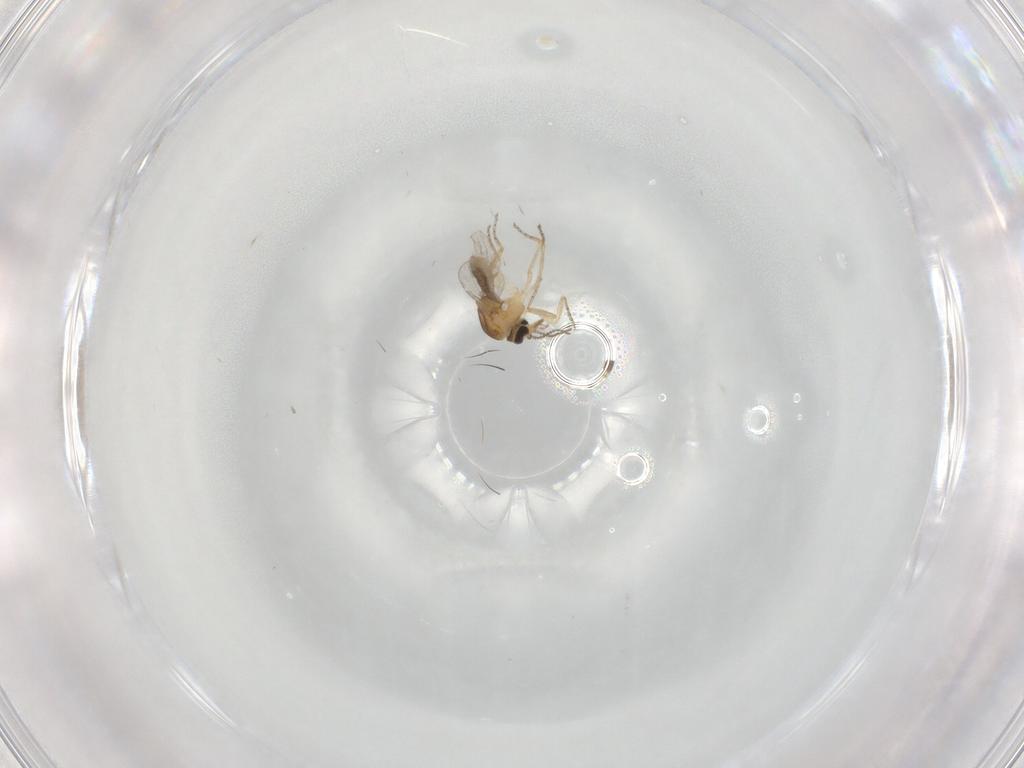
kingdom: Animalia
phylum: Arthropoda
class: Insecta
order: Diptera
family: Ceratopogonidae
